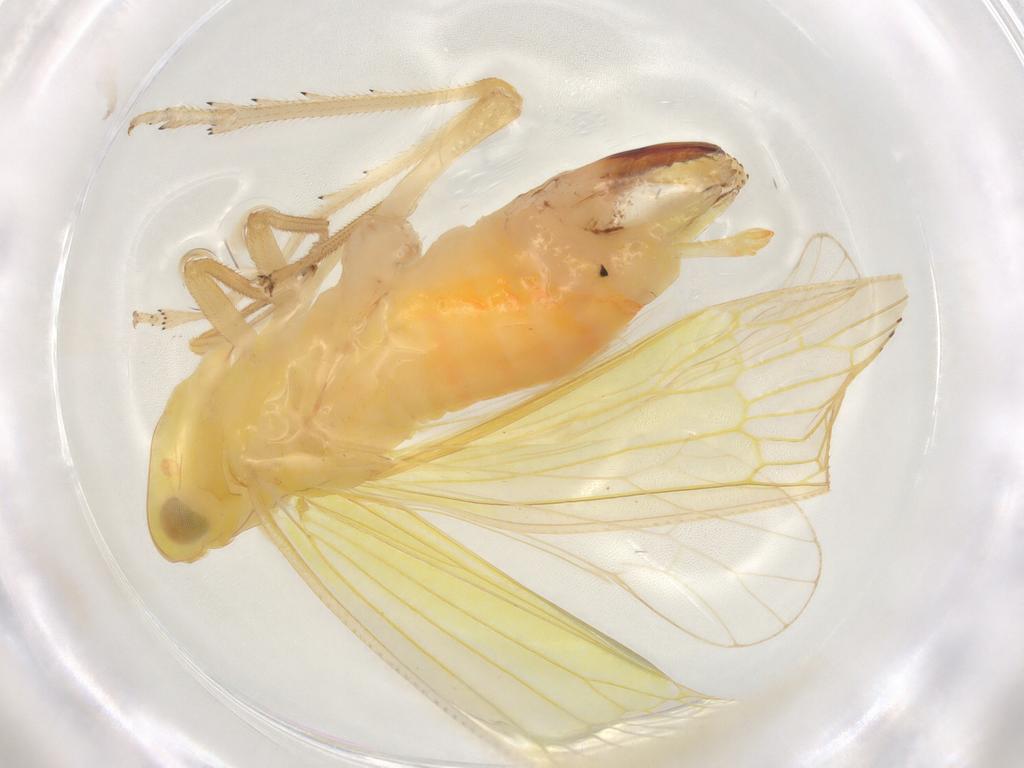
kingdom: Animalia
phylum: Arthropoda
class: Insecta
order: Hemiptera
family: Tropiduchidae
